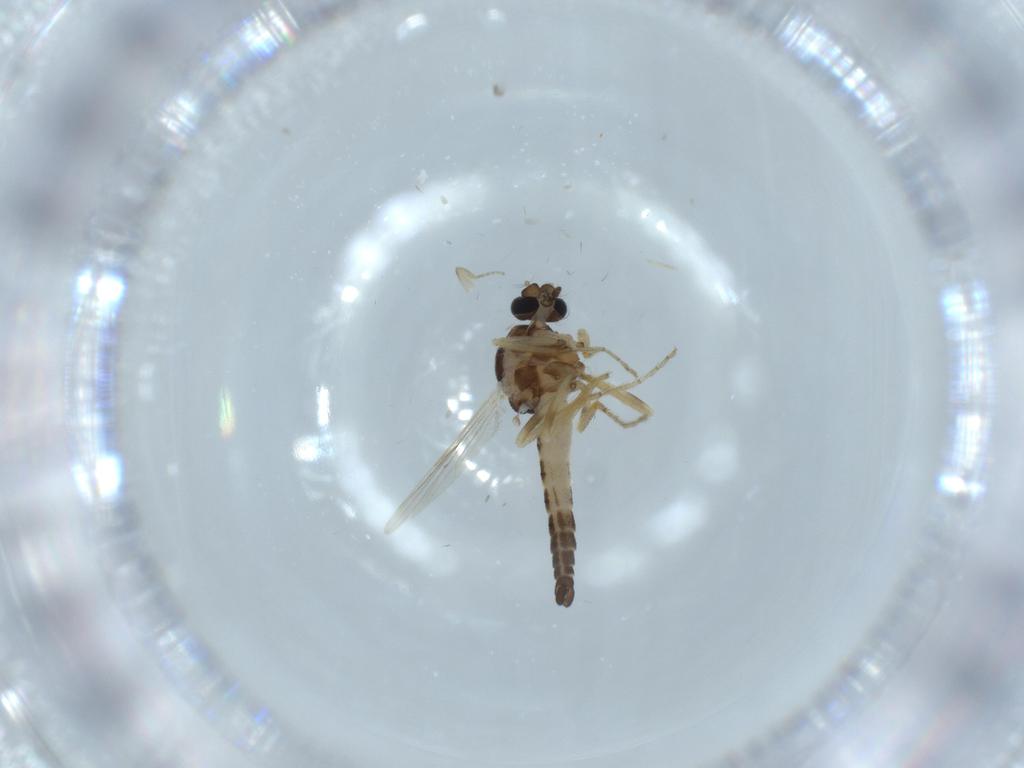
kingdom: Animalia
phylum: Arthropoda
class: Insecta
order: Diptera
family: Ceratopogonidae
